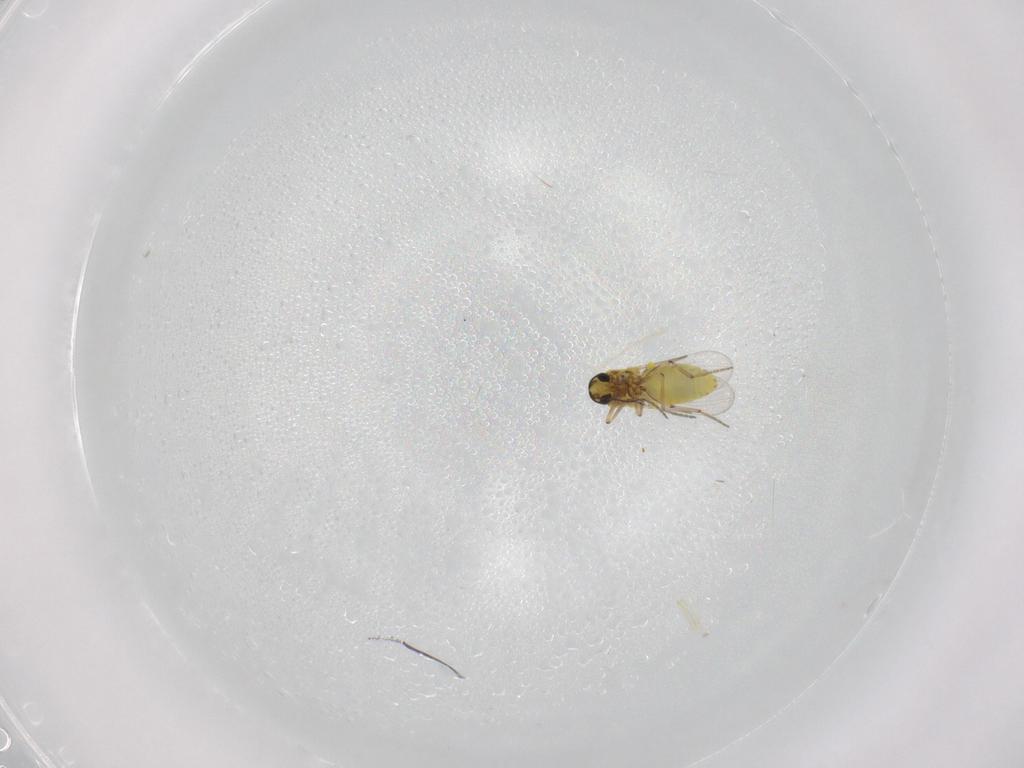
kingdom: Animalia
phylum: Arthropoda
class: Insecta
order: Diptera
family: Ceratopogonidae
